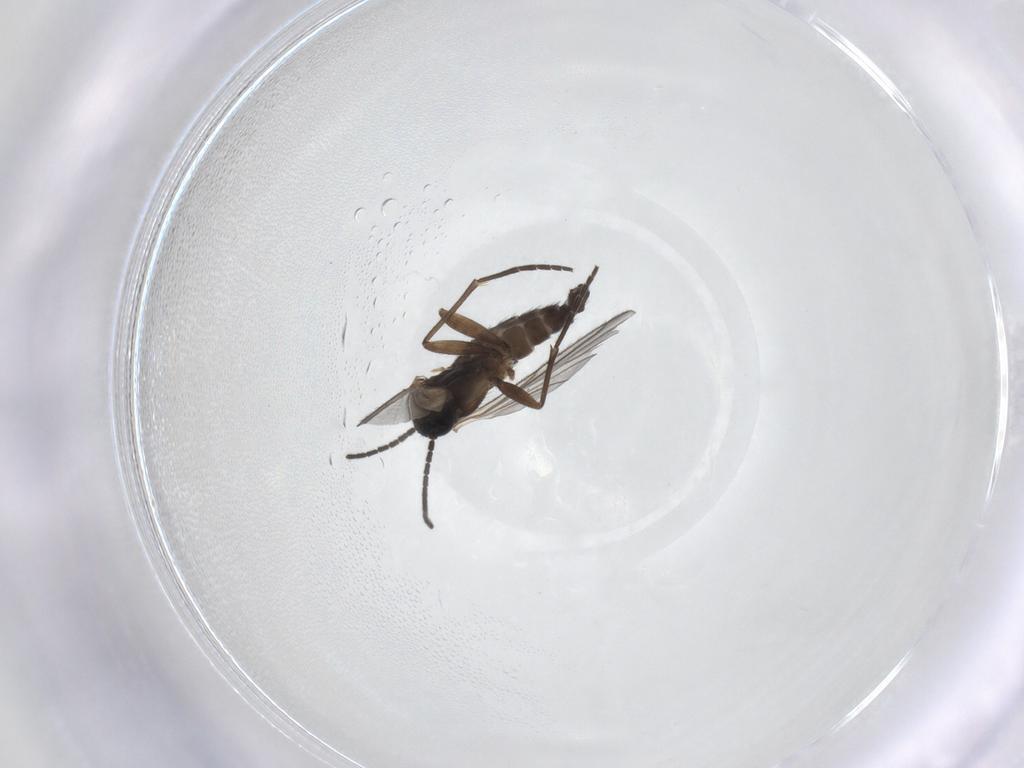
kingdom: Animalia
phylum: Arthropoda
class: Insecta
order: Diptera
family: Sciaridae
